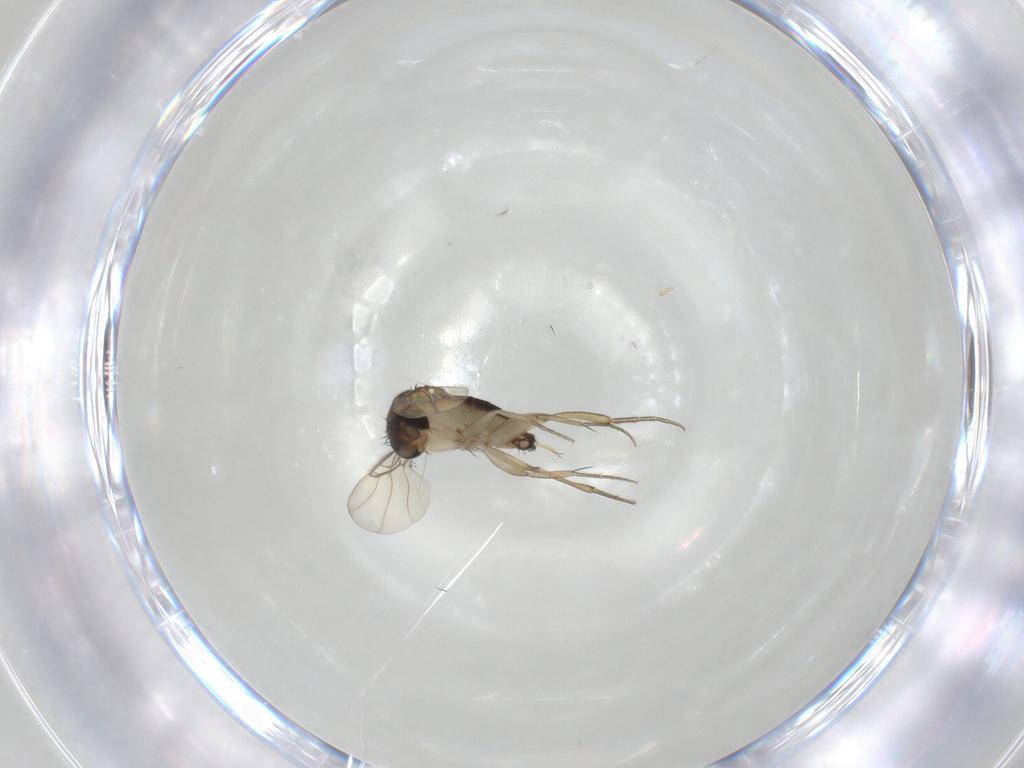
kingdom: Animalia
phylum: Arthropoda
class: Insecta
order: Diptera
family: Phoridae
